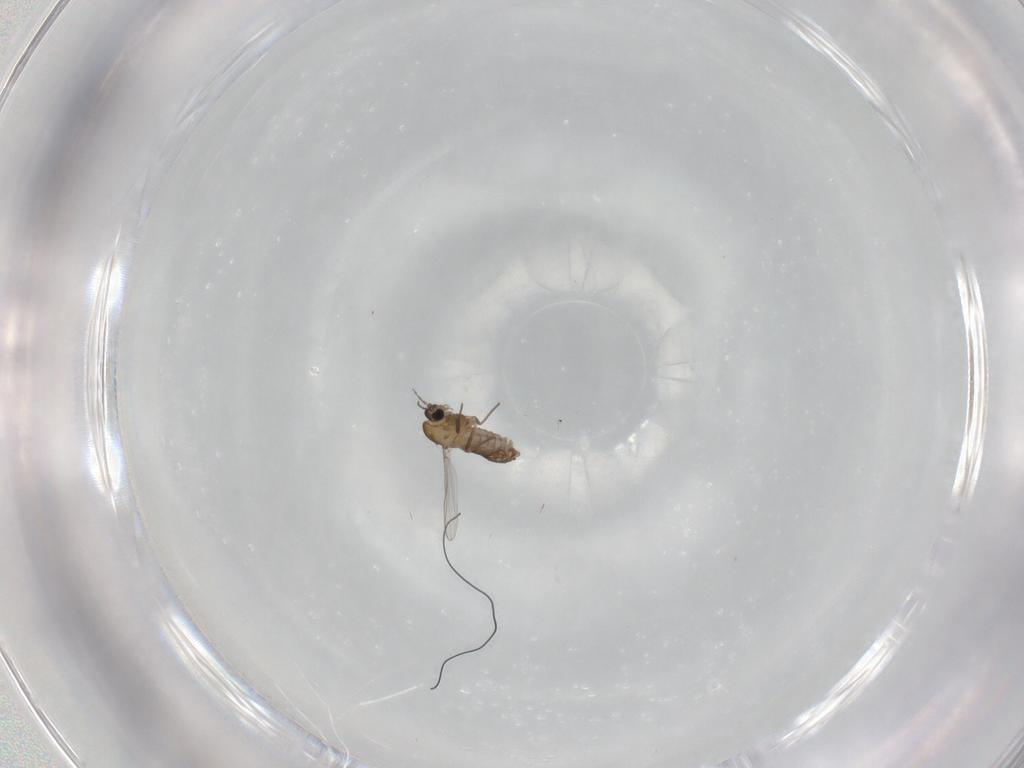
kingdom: Animalia
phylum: Arthropoda
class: Insecta
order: Diptera
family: Chironomidae
